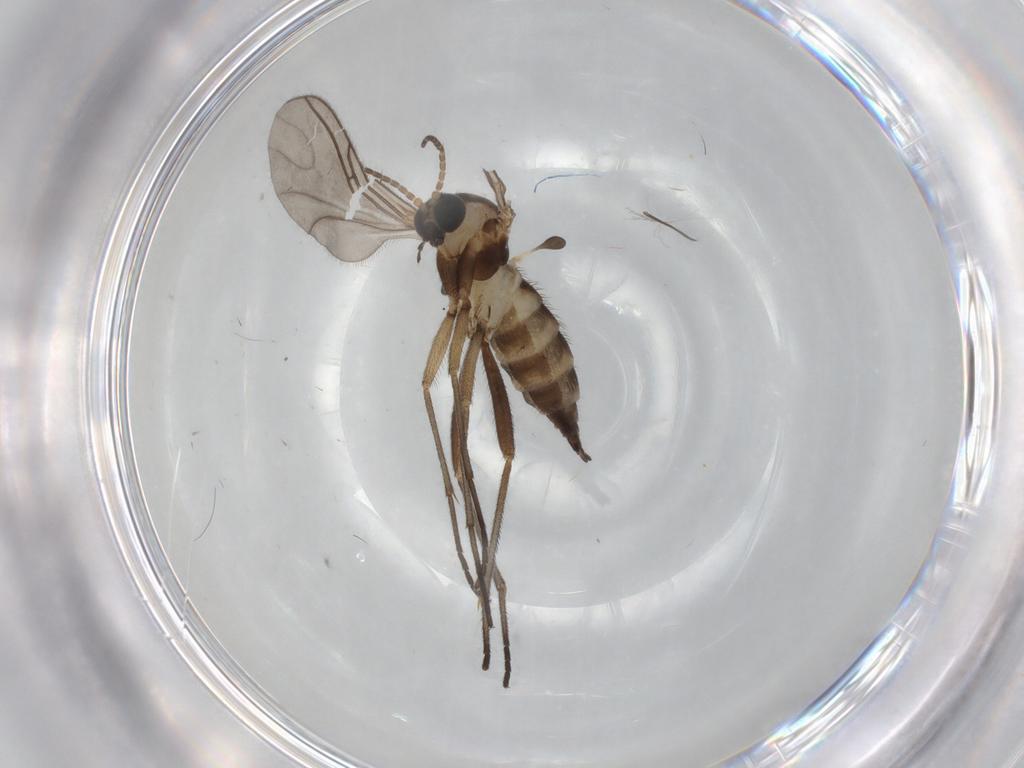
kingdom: Animalia
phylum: Arthropoda
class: Insecta
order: Diptera
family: Sciaridae
